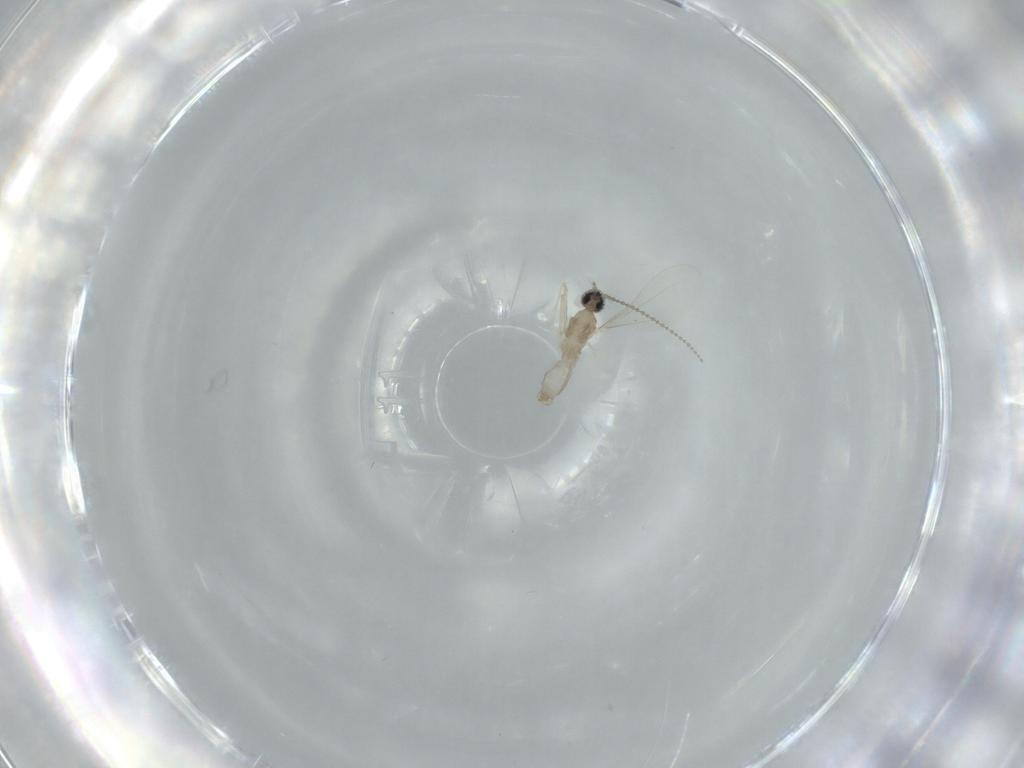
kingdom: Animalia
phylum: Arthropoda
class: Insecta
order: Diptera
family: Cecidomyiidae
